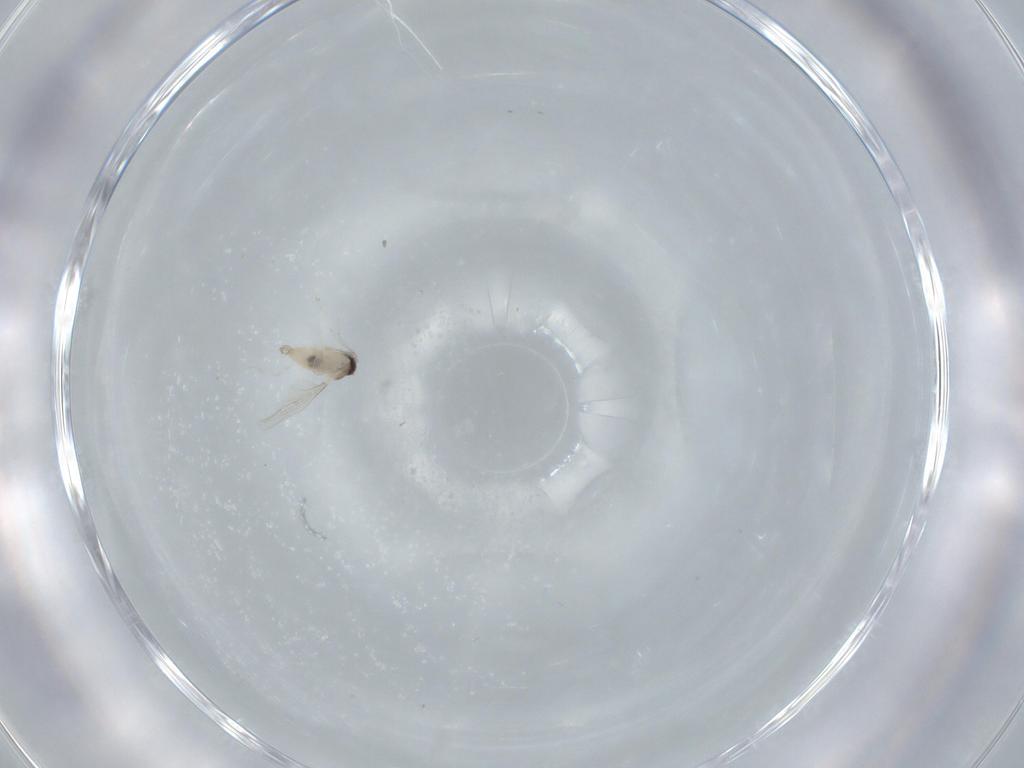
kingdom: Animalia
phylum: Arthropoda
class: Insecta
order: Diptera
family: Cecidomyiidae
